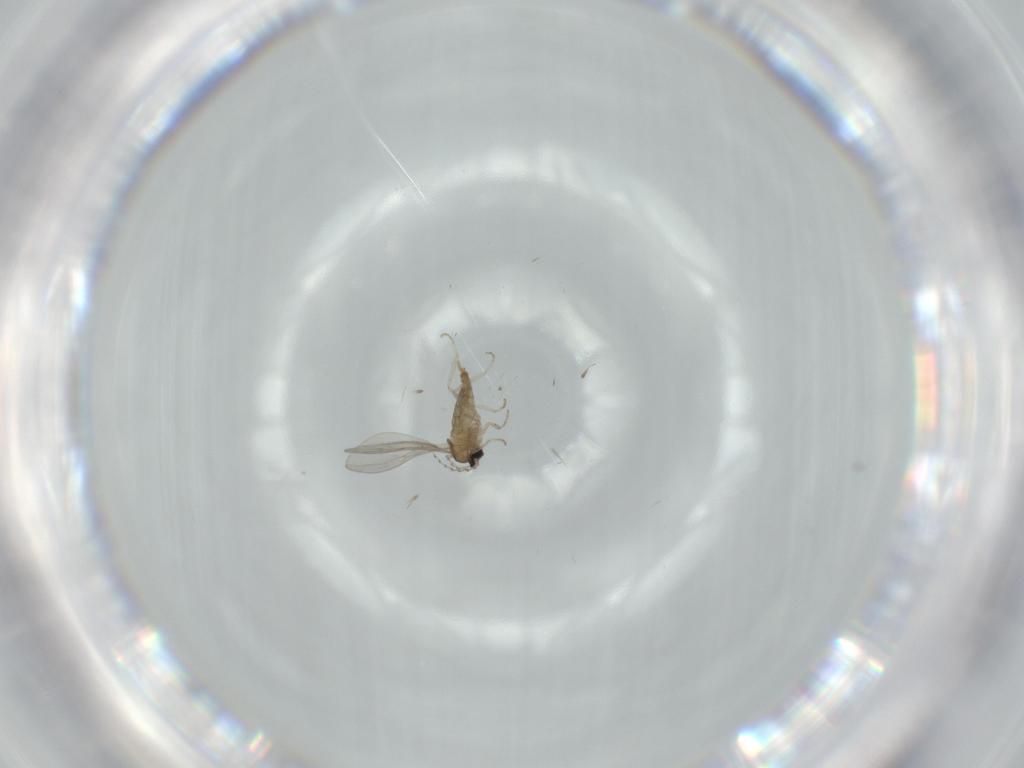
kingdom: Animalia
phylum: Arthropoda
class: Insecta
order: Diptera
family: Cecidomyiidae
